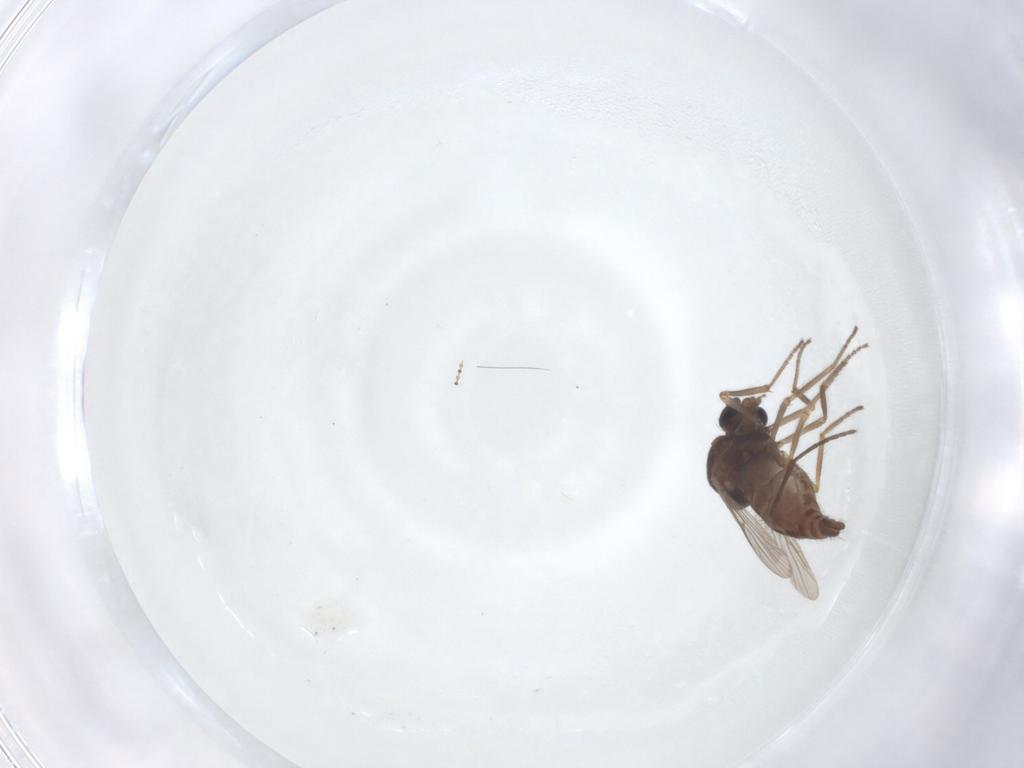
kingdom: Animalia
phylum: Arthropoda
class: Insecta
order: Diptera
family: Ceratopogonidae
